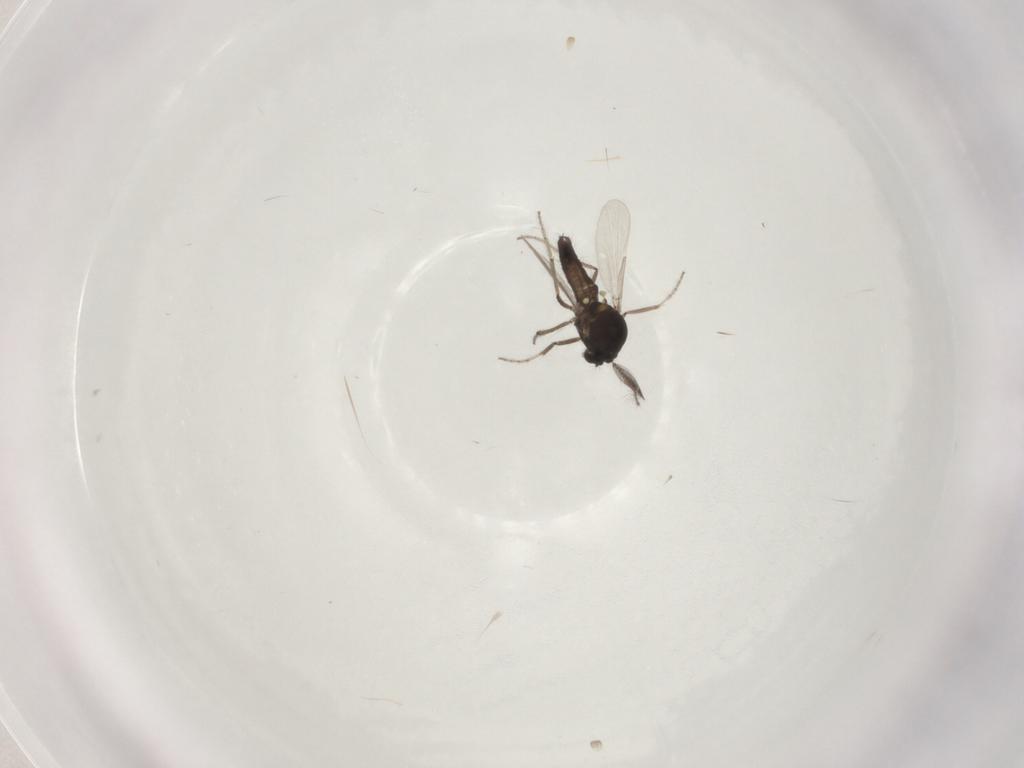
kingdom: Animalia
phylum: Arthropoda
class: Insecta
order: Diptera
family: Ceratopogonidae
